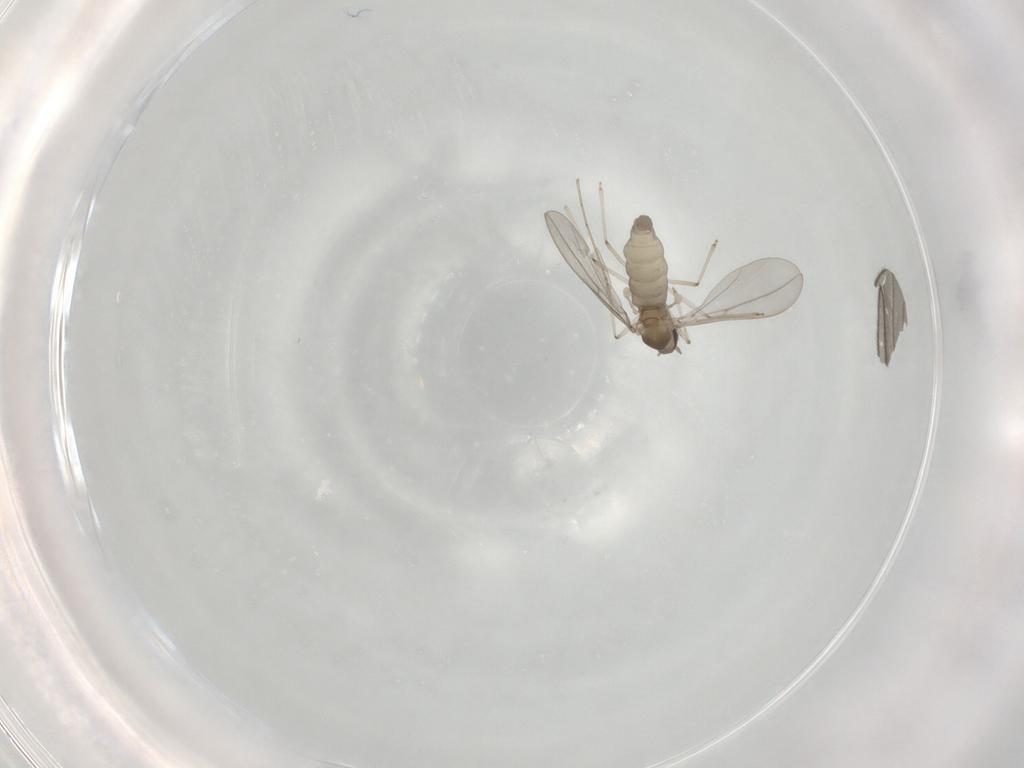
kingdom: Animalia
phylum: Arthropoda
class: Insecta
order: Diptera
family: Sciaridae
